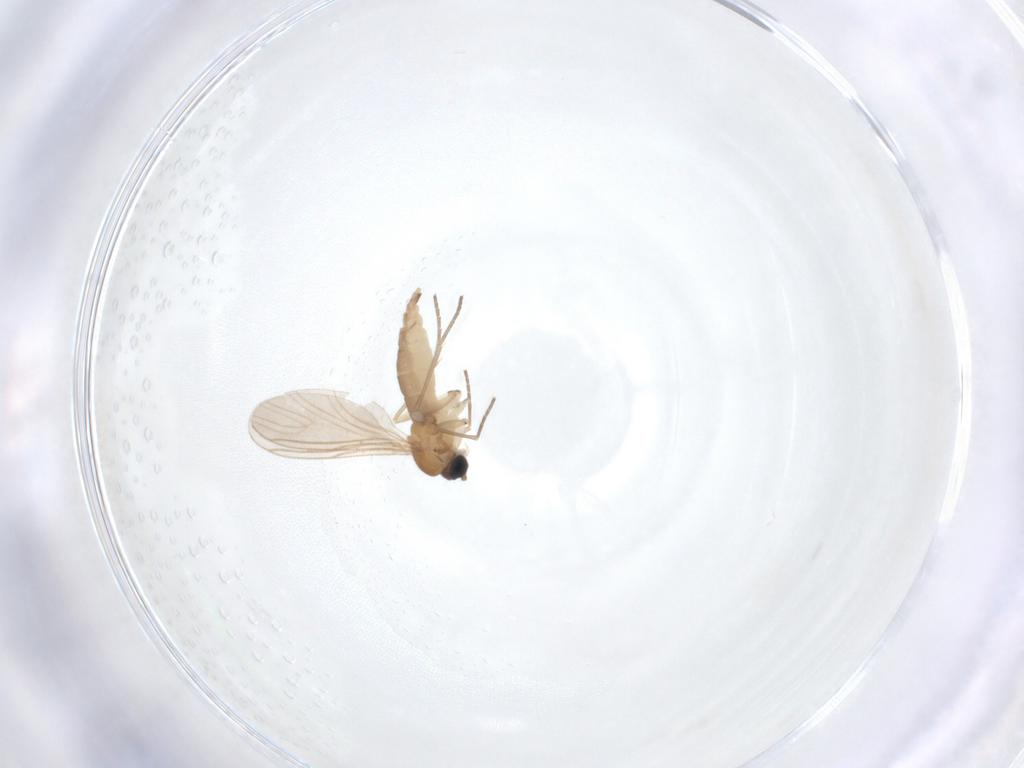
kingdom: Animalia
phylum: Arthropoda
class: Insecta
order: Diptera
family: Sciaridae
